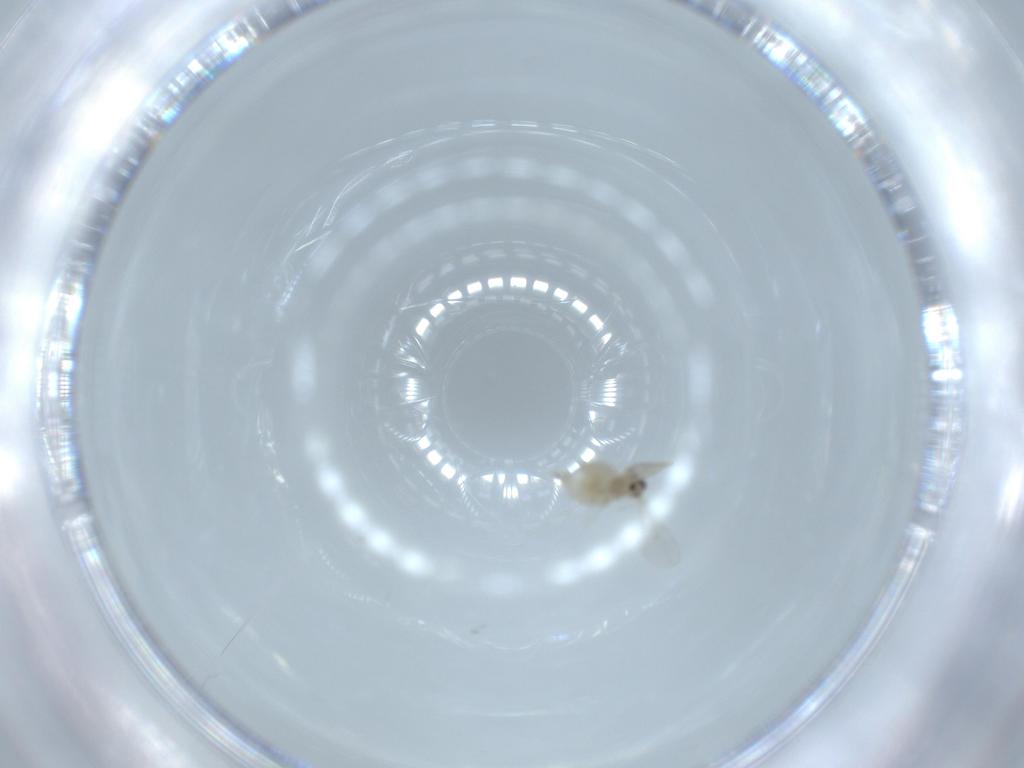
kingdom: Animalia
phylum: Arthropoda
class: Insecta
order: Diptera
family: Cecidomyiidae
